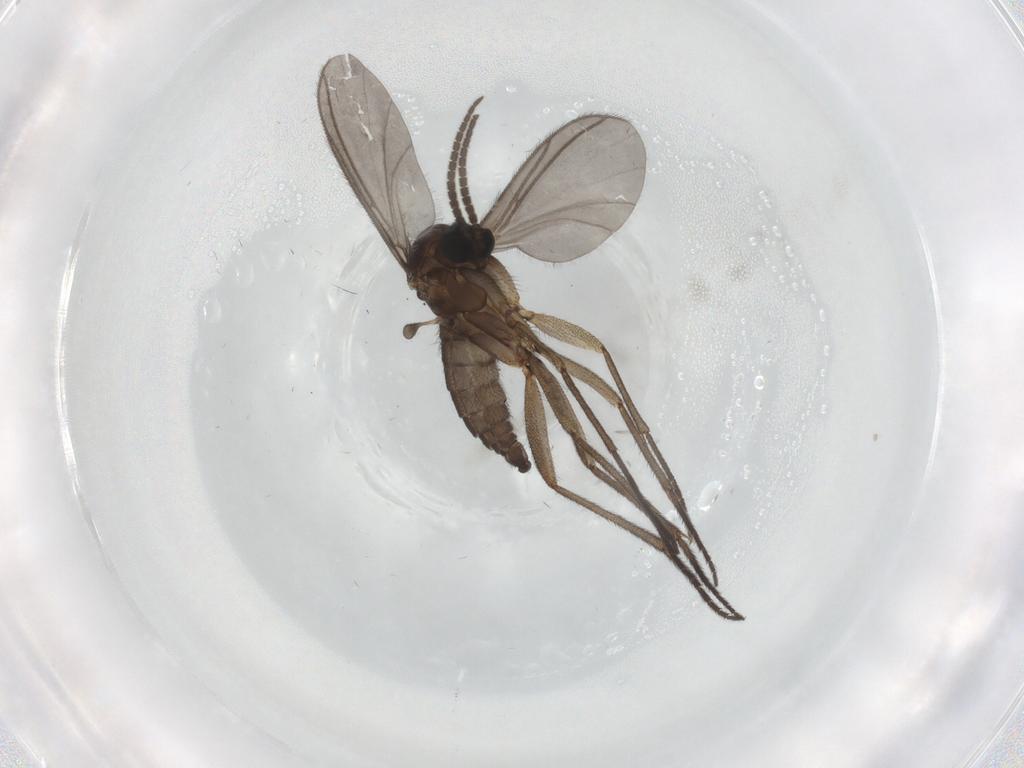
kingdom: Animalia
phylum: Arthropoda
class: Insecta
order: Diptera
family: Sciaridae
